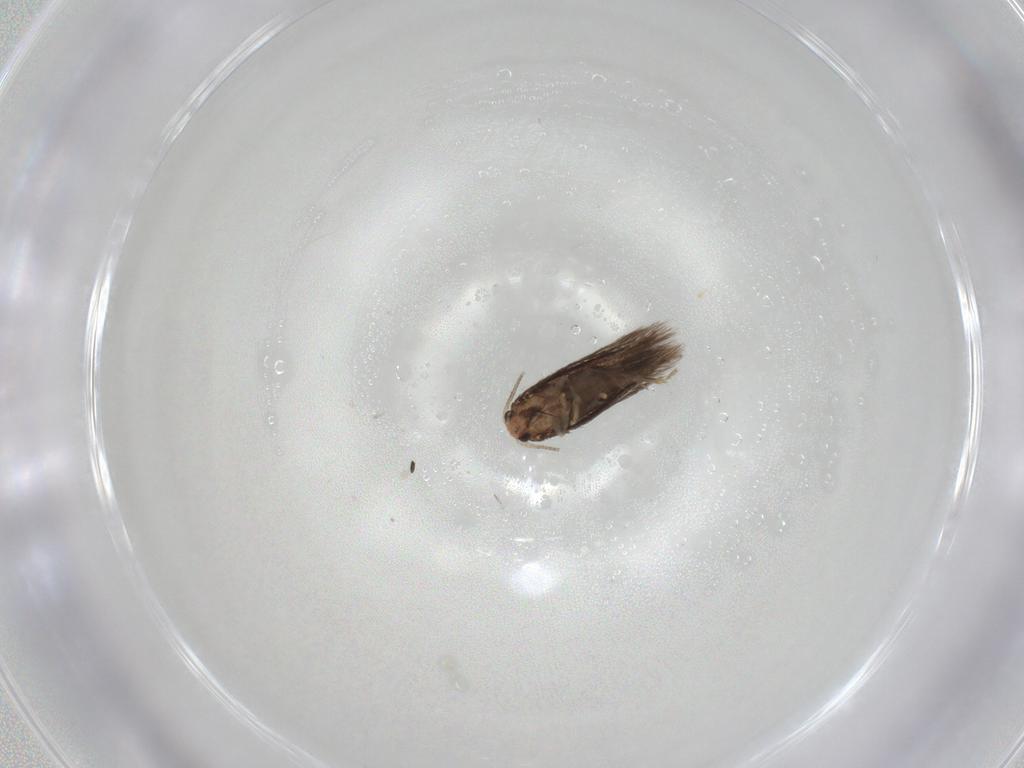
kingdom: Animalia
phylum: Arthropoda
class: Insecta
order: Lepidoptera
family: Nepticulidae
